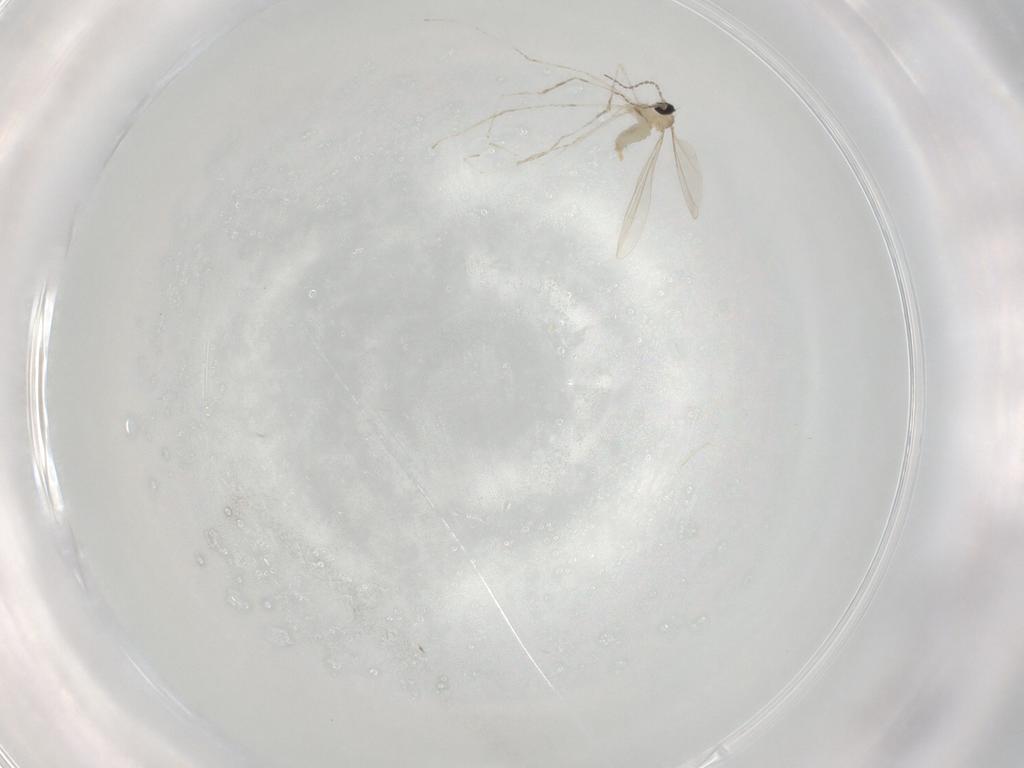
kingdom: Animalia
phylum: Arthropoda
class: Insecta
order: Diptera
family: Cecidomyiidae
